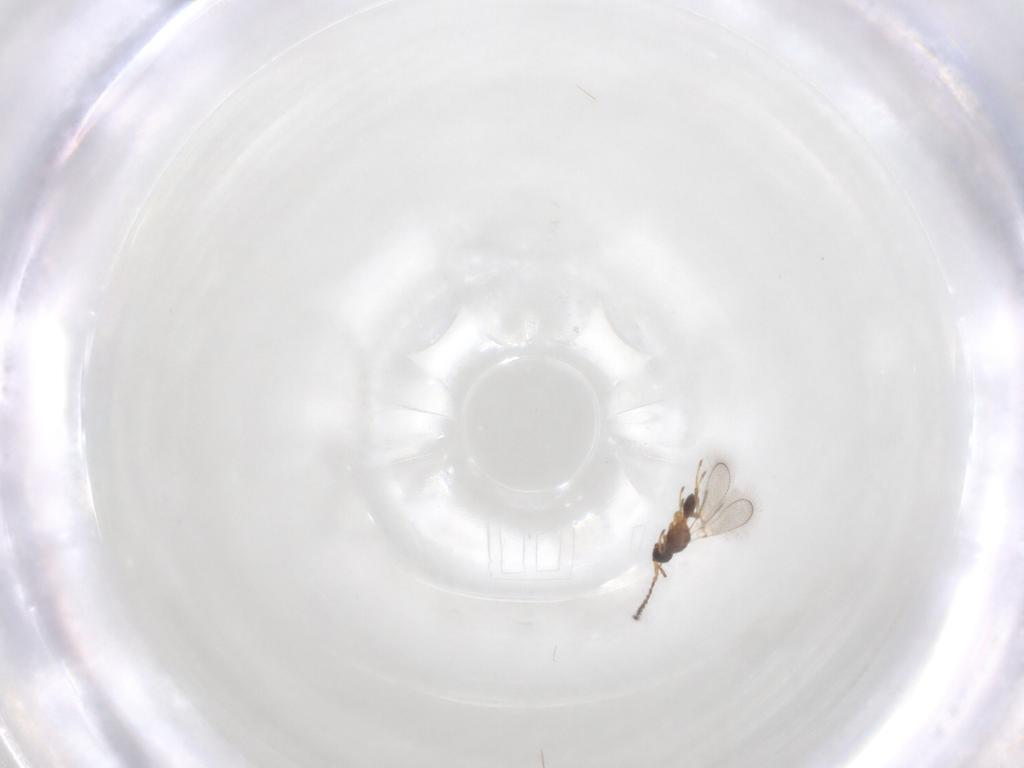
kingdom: Animalia
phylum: Arthropoda
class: Insecta
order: Hymenoptera
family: Diapriidae
